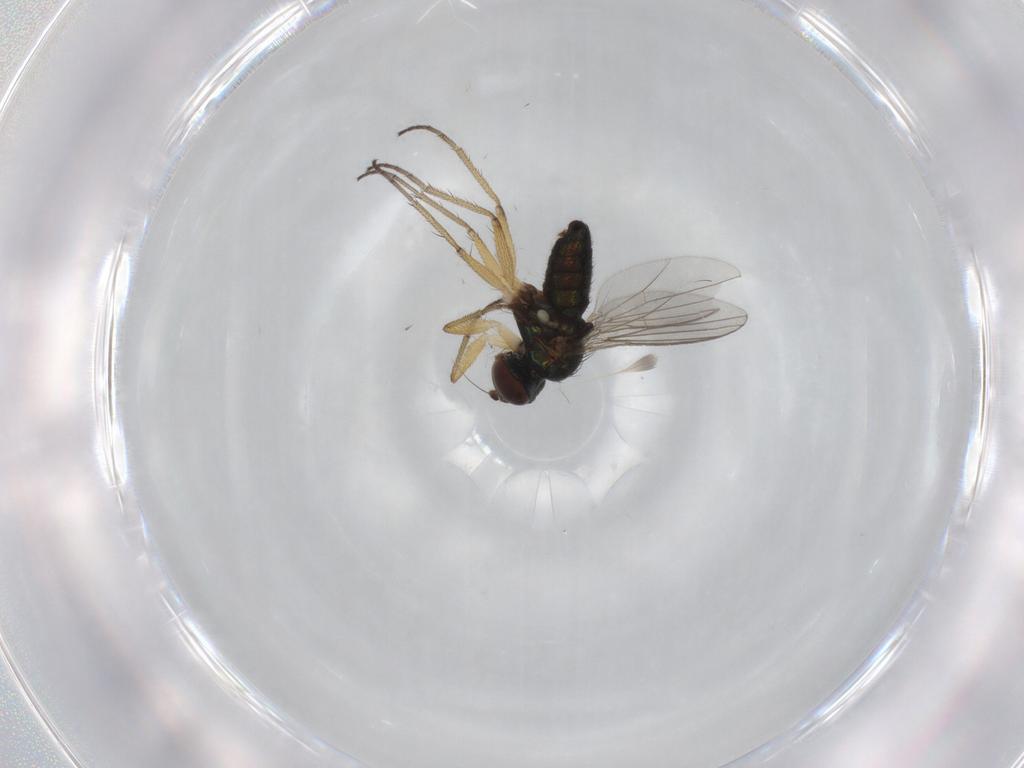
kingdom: Animalia
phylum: Arthropoda
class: Insecta
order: Diptera
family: Dolichopodidae
